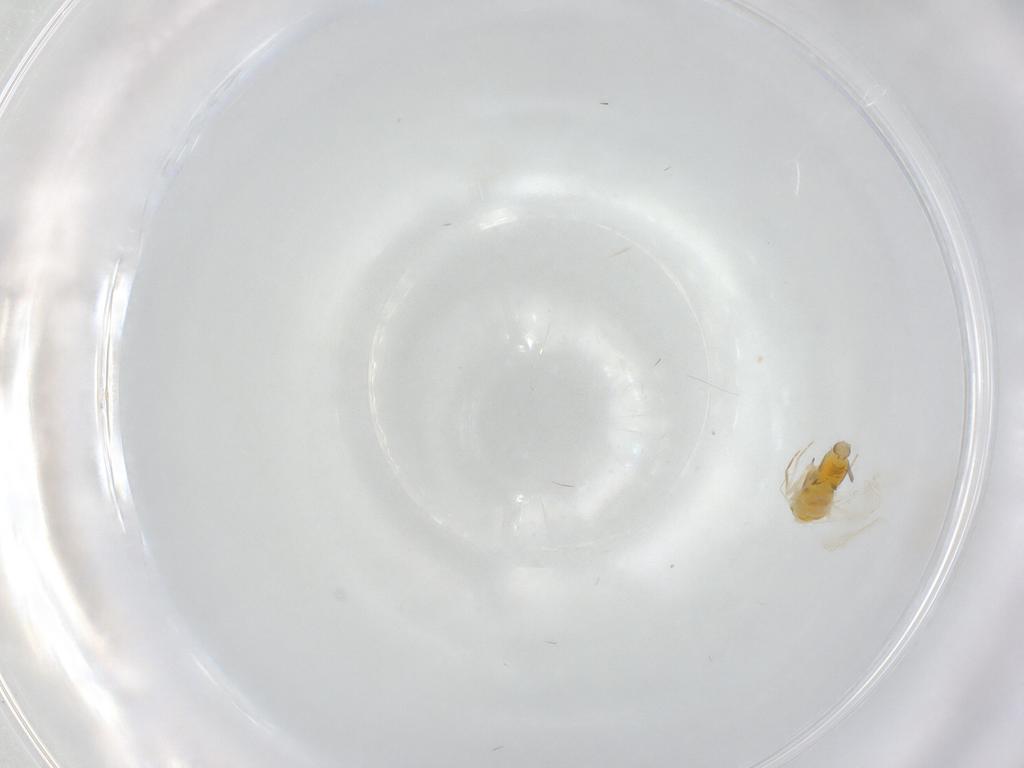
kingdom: Animalia
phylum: Arthropoda
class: Insecta
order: Hemiptera
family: Aleyrodidae
